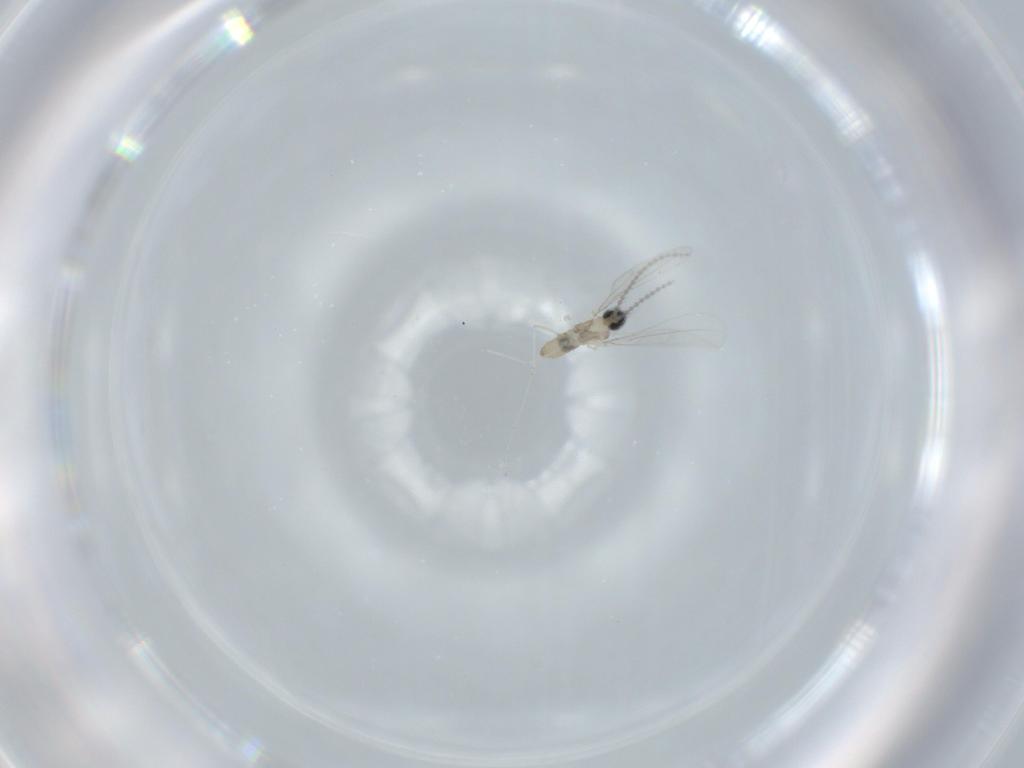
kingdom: Animalia
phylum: Arthropoda
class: Insecta
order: Diptera
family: Cecidomyiidae
